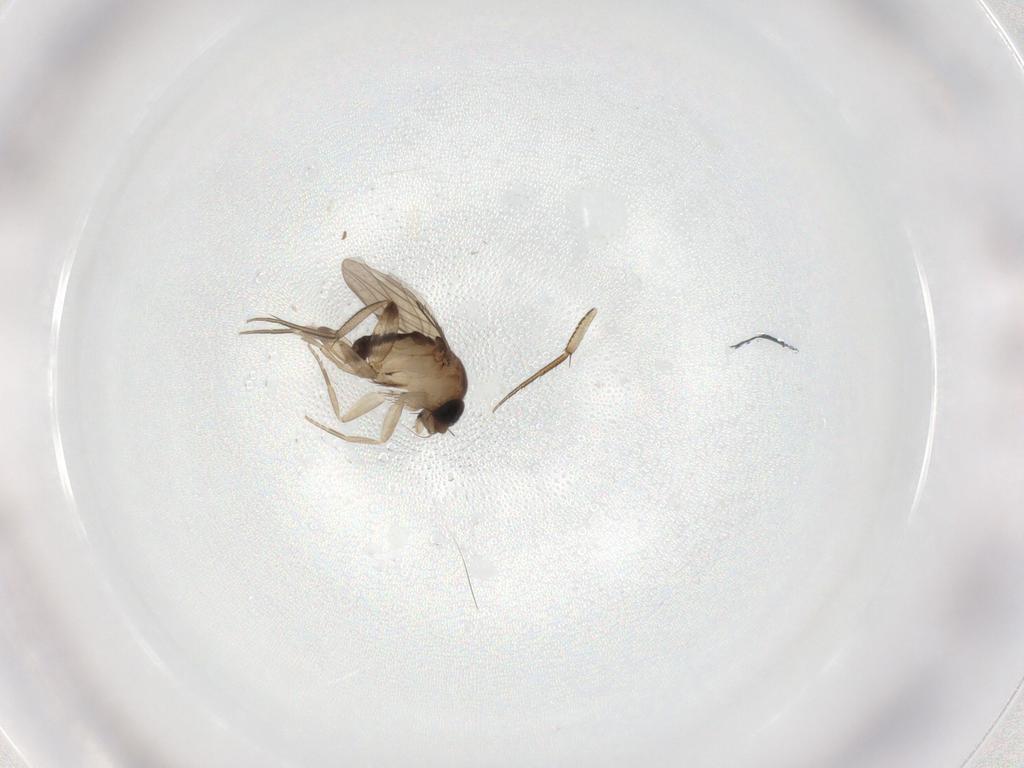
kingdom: Animalia
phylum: Arthropoda
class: Insecta
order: Diptera
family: Phoridae
